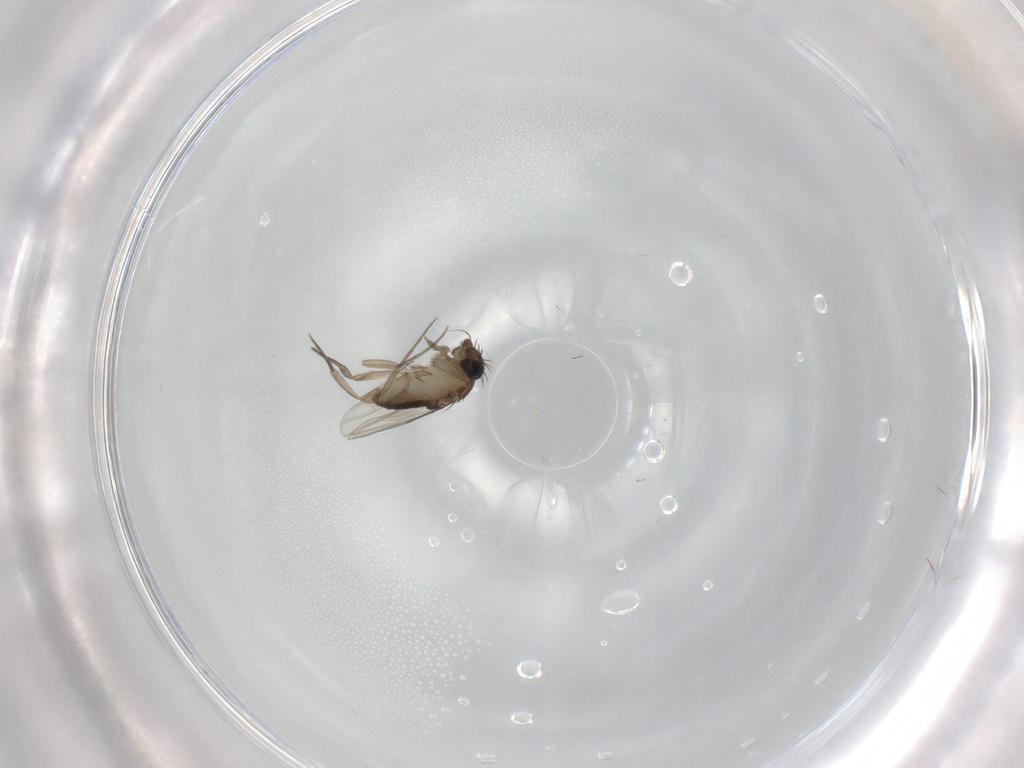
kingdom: Animalia
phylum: Arthropoda
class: Insecta
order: Diptera
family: Phoridae
